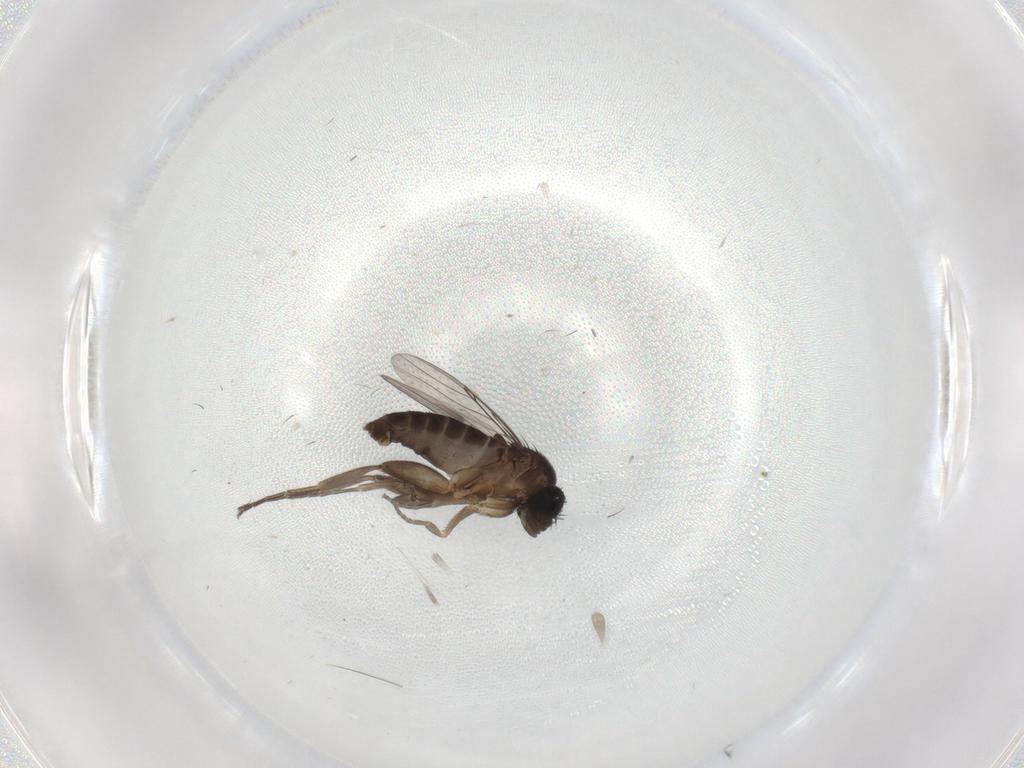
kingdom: Animalia
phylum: Arthropoda
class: Insecta
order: Diptera
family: Phoridae
